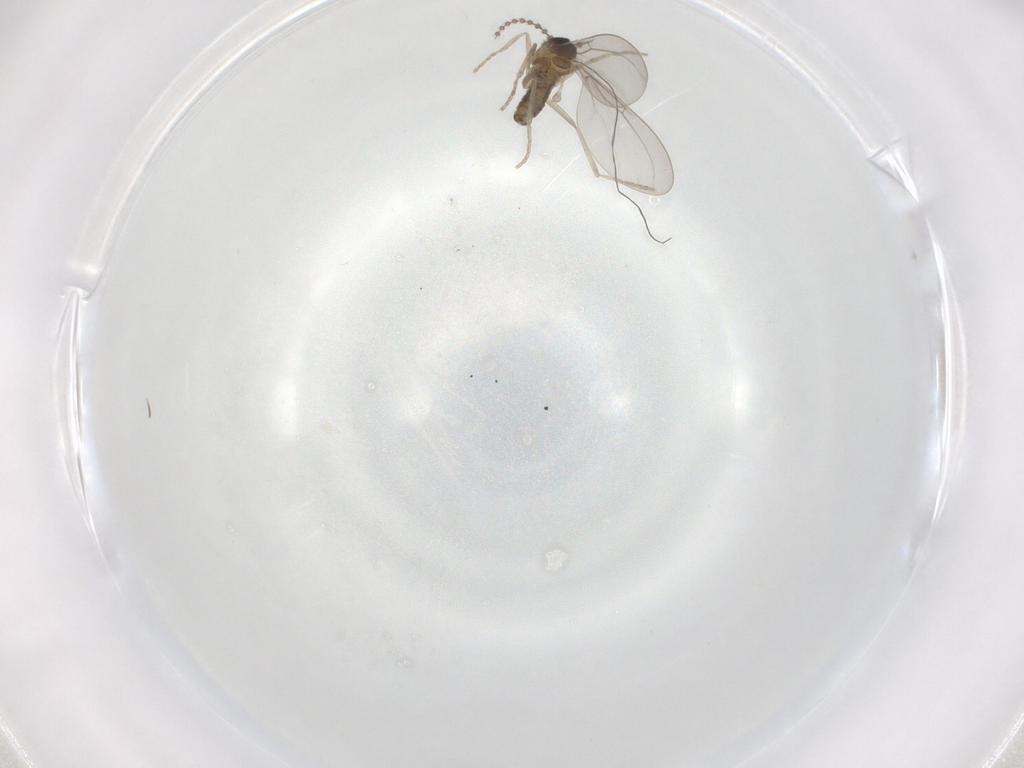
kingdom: Animalia
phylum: Arthropoda
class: Insecta
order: Diptera
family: Cecidomyiidae
